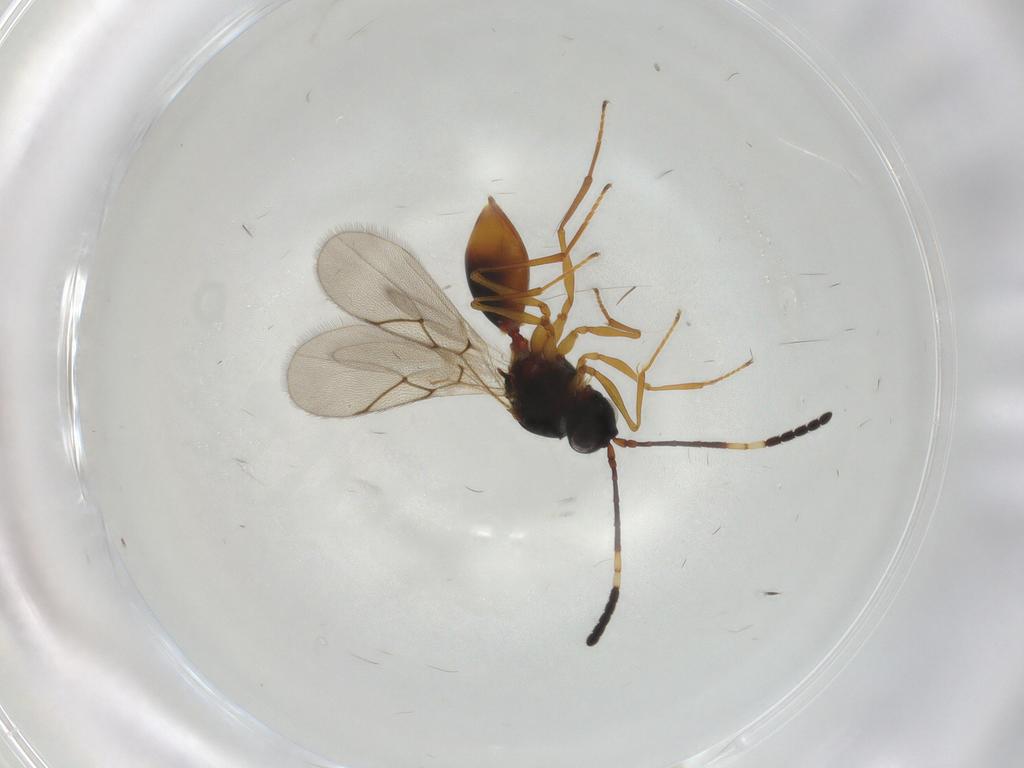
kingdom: Animalia
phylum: Arthropoda
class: Insecta
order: Hymenoptera
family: Figitidae
